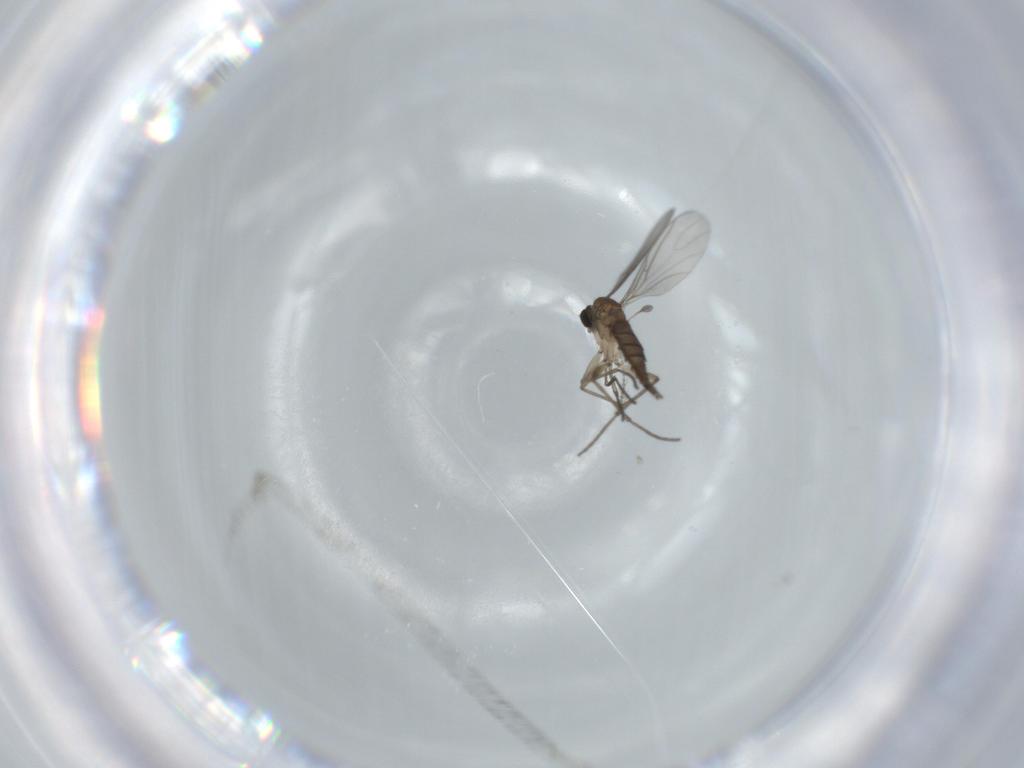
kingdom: Animalia
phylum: Arthropoda
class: Insecta
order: Diptera
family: Sciaridae
